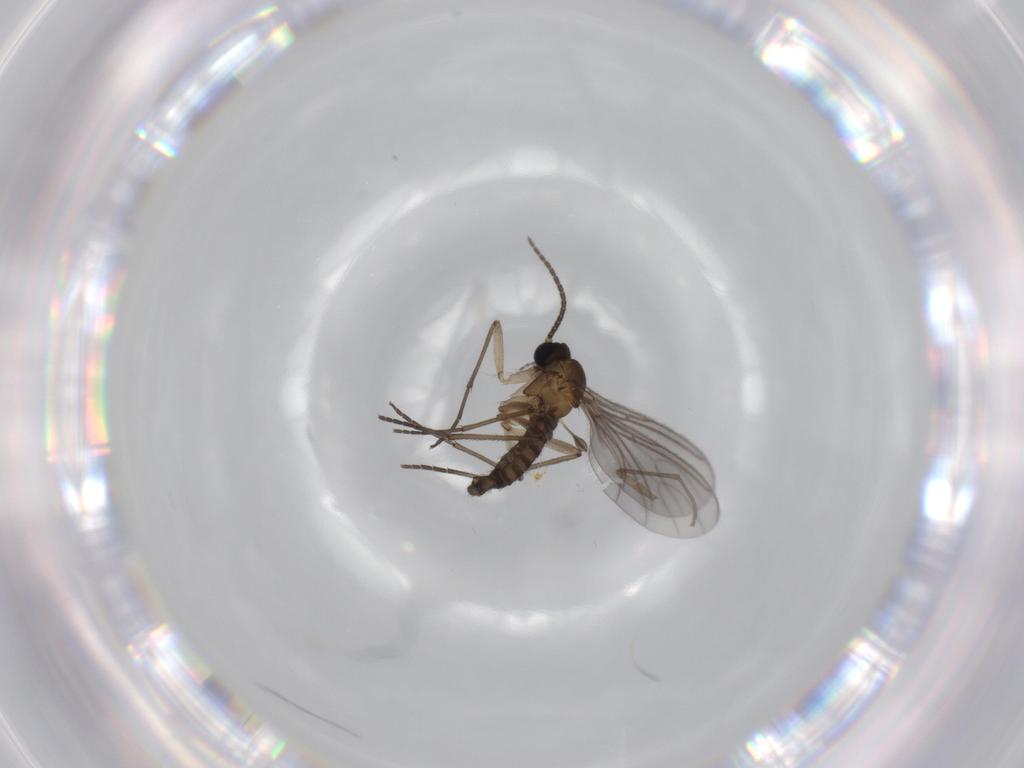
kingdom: Animalia
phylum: Arthropoda
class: Insecta
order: Diptera
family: Sciaridae
